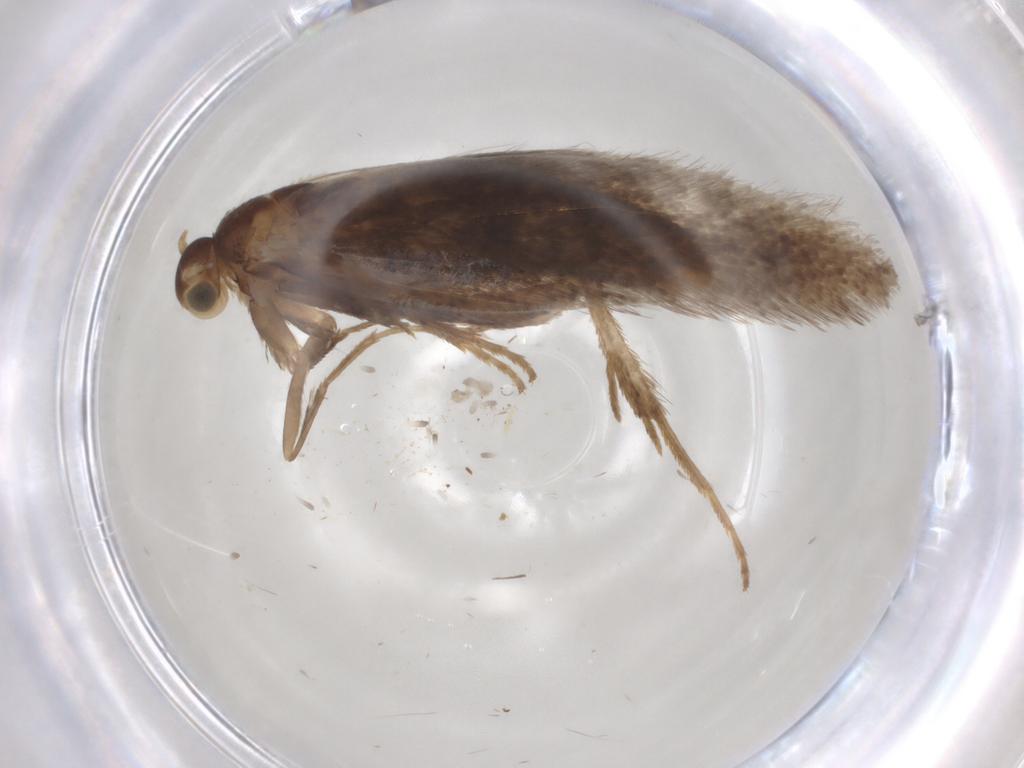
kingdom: Animalia
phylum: Arthropoda
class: Insecta
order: Lepidoptera
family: Douglasiidae
